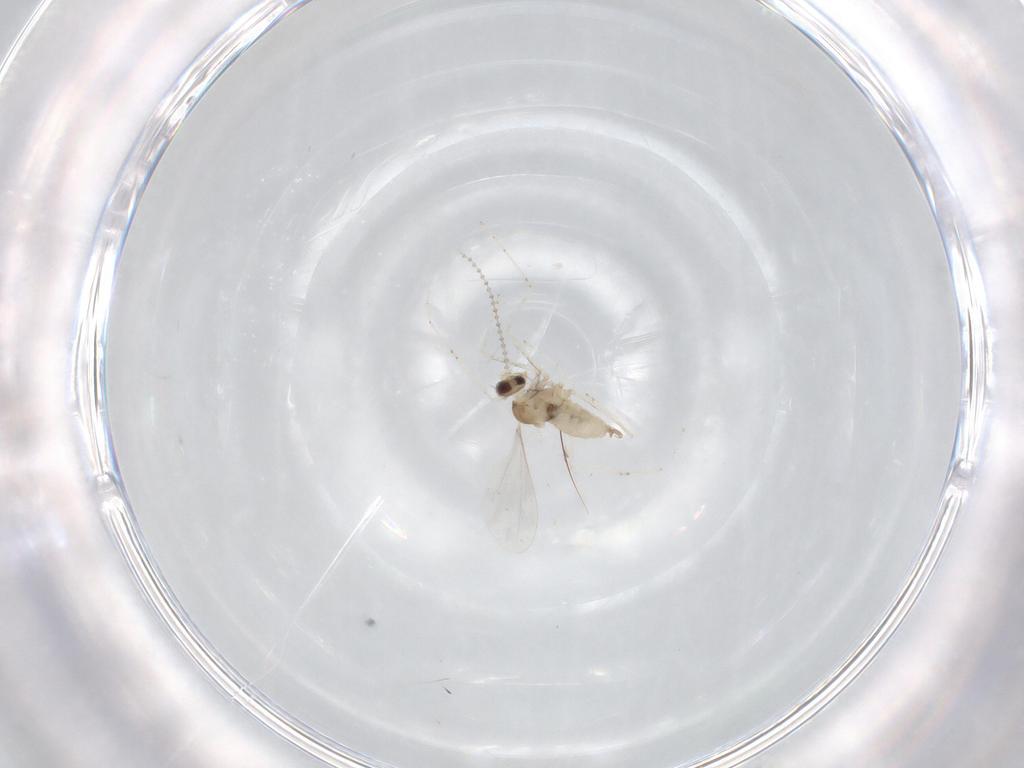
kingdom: Animalia
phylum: Arthropoda
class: Insecta
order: Diptera
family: Cecidomyiidae
